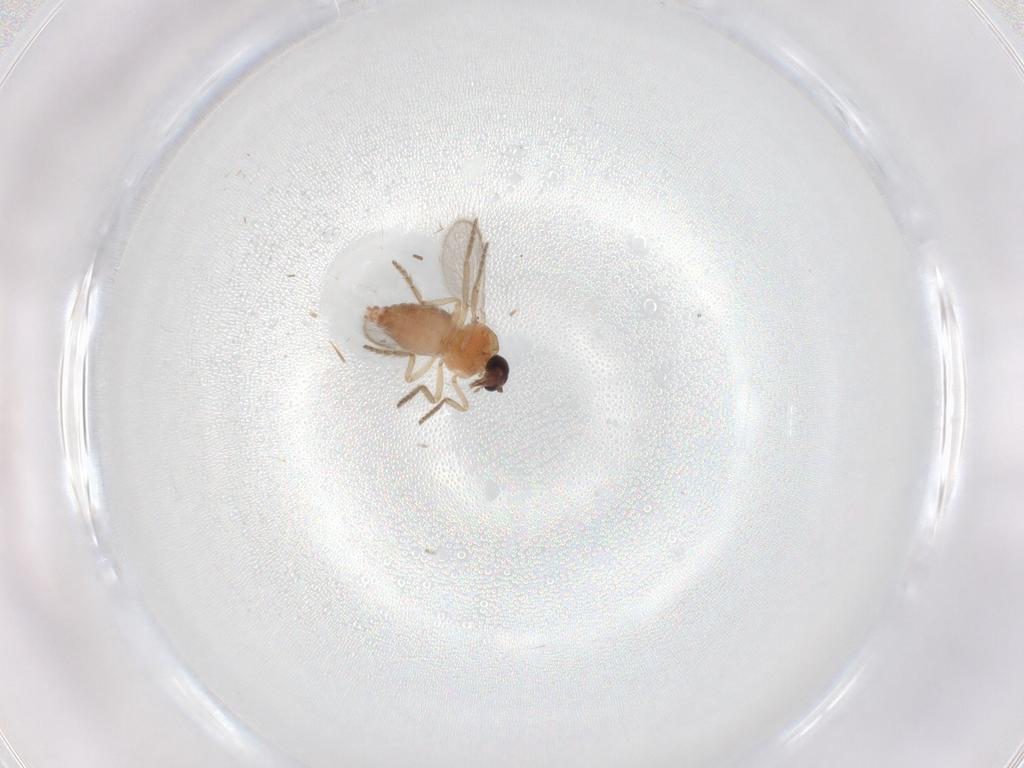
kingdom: Animalia
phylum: Arthropoda
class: Insecta
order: Diptera
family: Ceratopogonidae
